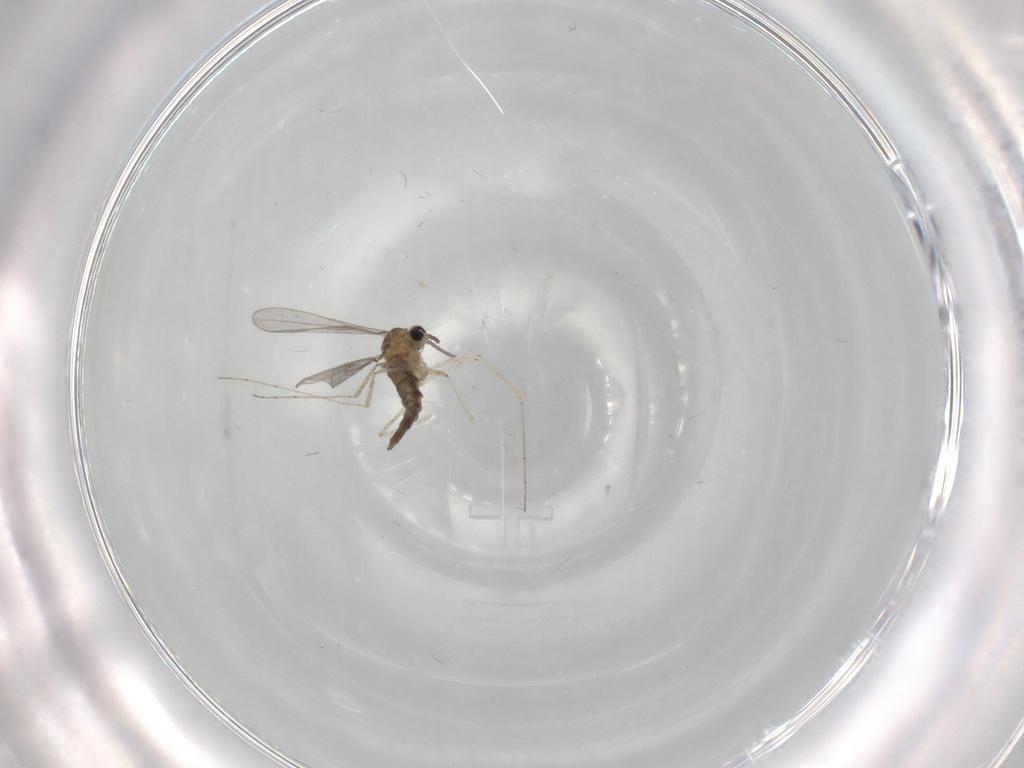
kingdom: Animalia
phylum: Arthropoda
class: Insecta
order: Diptera
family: Cecidomyiidae
